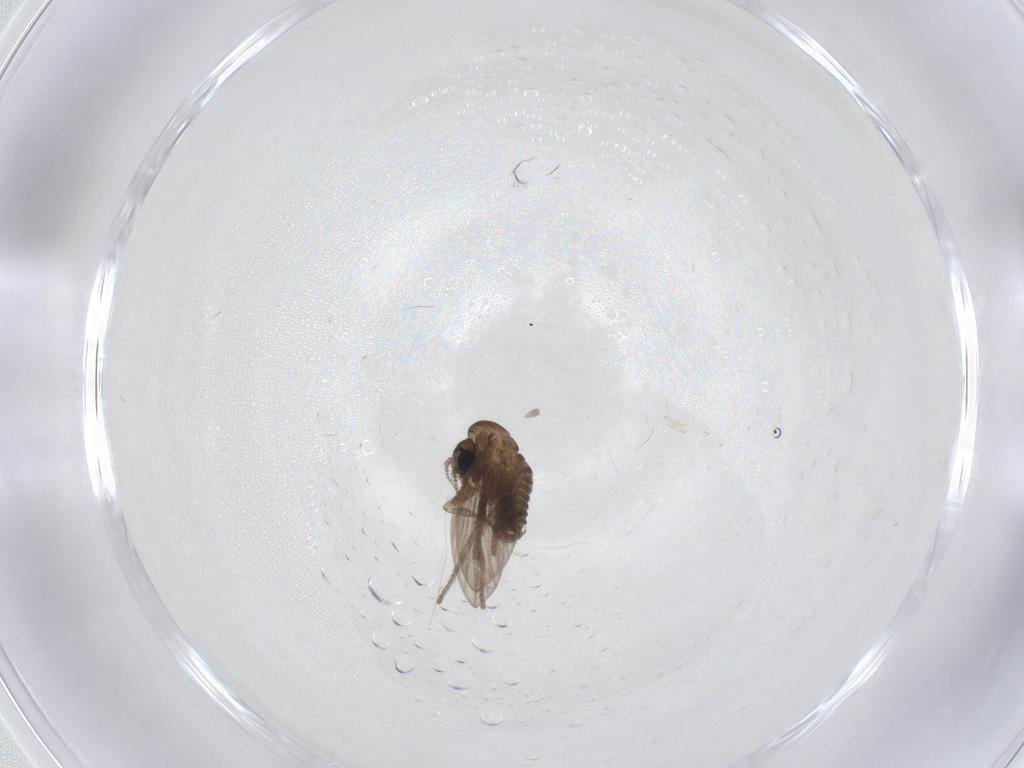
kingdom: Animalia
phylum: Arthropoda
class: Insecta
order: Diptera
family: Psychodidae
